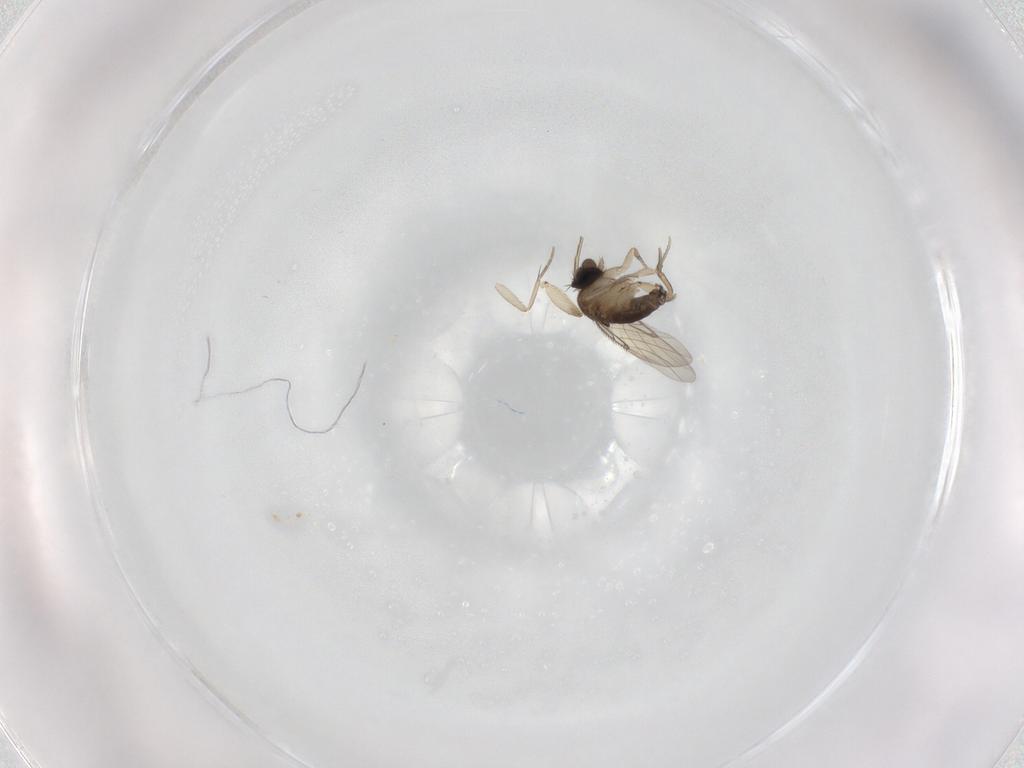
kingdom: Animalia
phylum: Arthropoda
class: Insecta
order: Diptera
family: Phoridae
